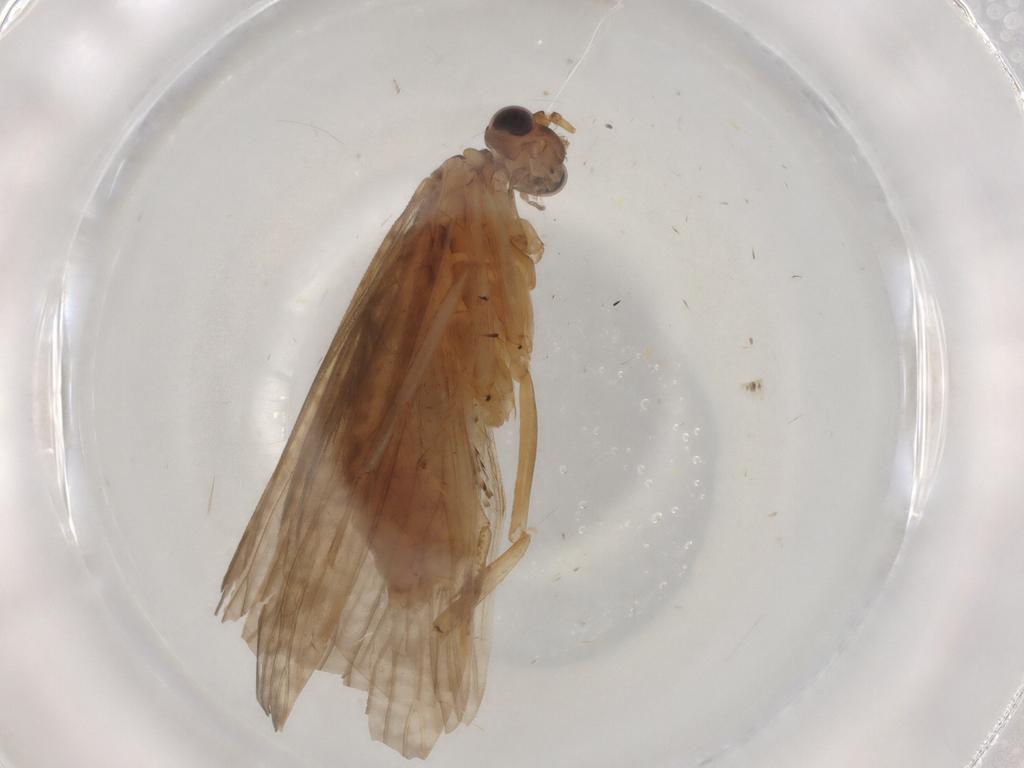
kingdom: Animalia
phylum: Arthropoda
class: Insecta
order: Trichoptera
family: Hydropsychidae
